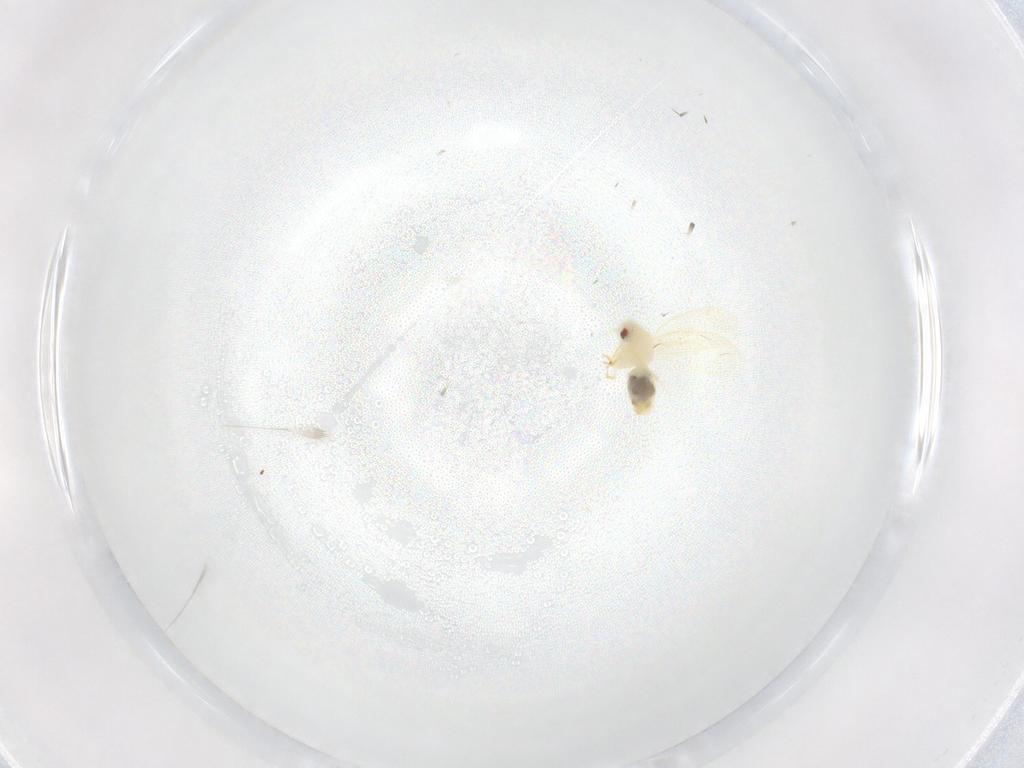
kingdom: Animalia
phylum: Arthropoda
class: Insecta
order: Hemiptera
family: Aleyrodidae
